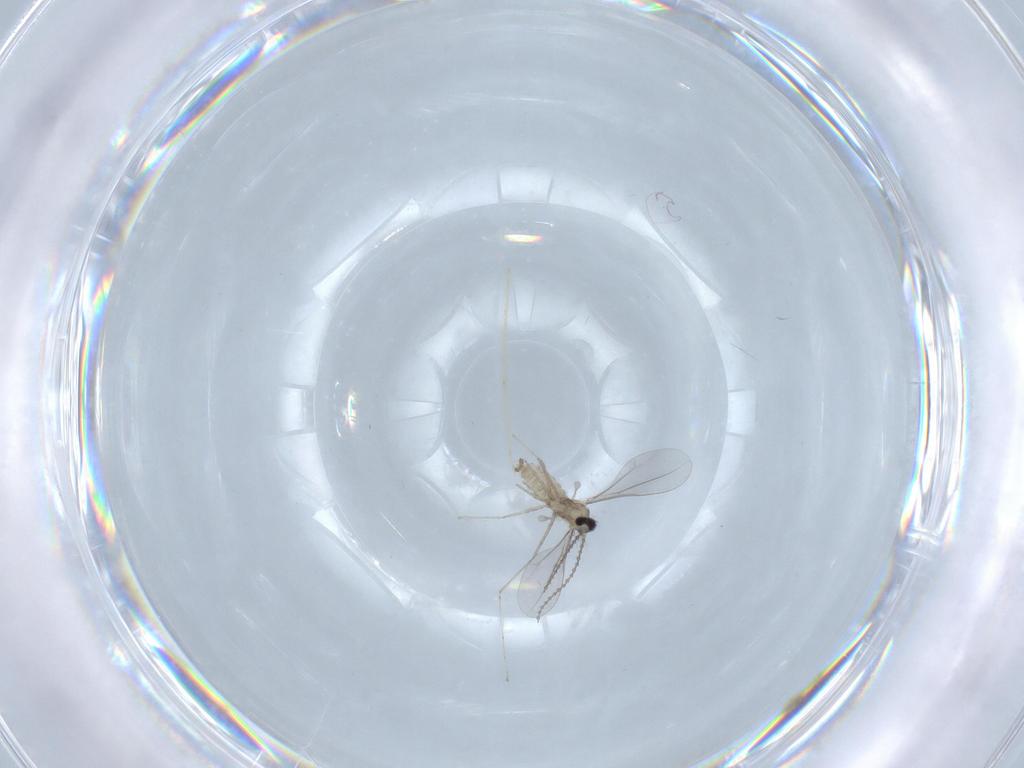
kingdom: Animalia
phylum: Arthropoda
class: Insecta
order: Diptera
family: Cecidomyiidae
